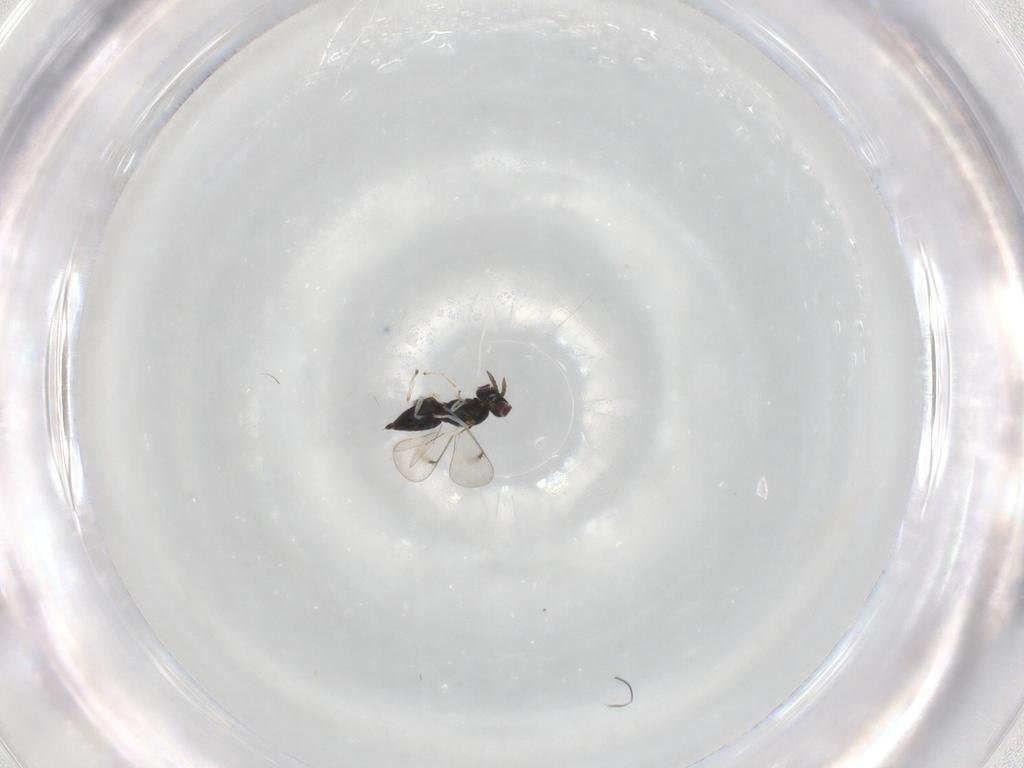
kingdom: Animalia
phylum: Arthropoda
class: Insecta
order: Hymenoptera
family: Eulophidae
